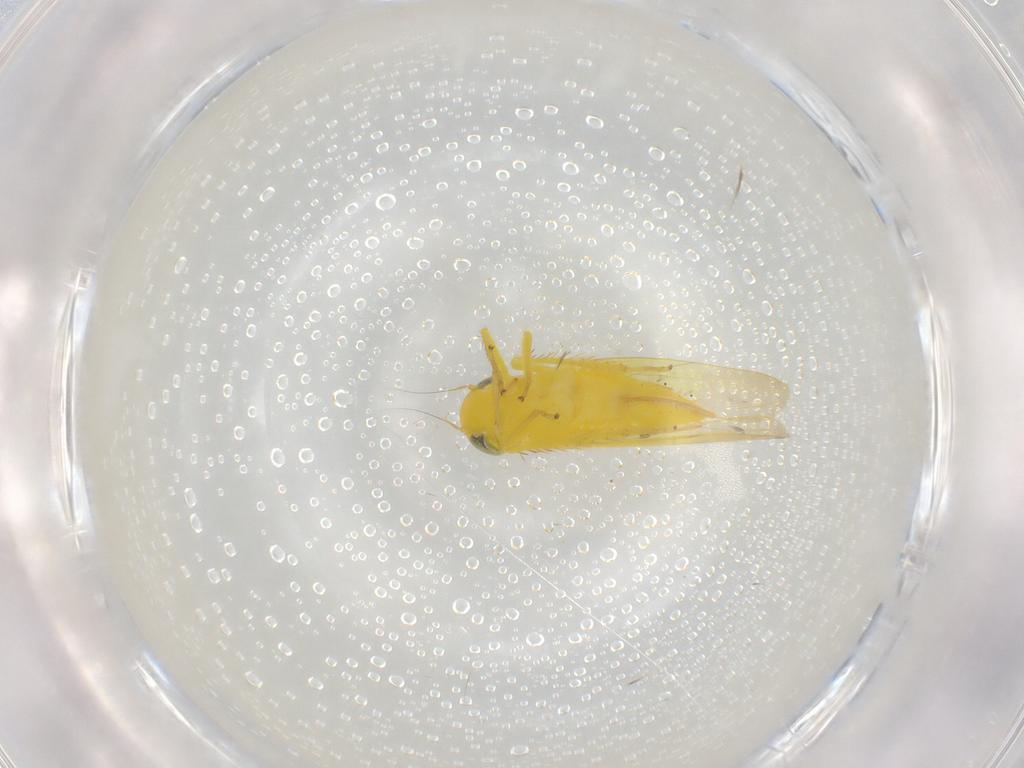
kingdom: Animalia
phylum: Arthropoda
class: Insecta
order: Hemiptera
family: Cicadellidae
